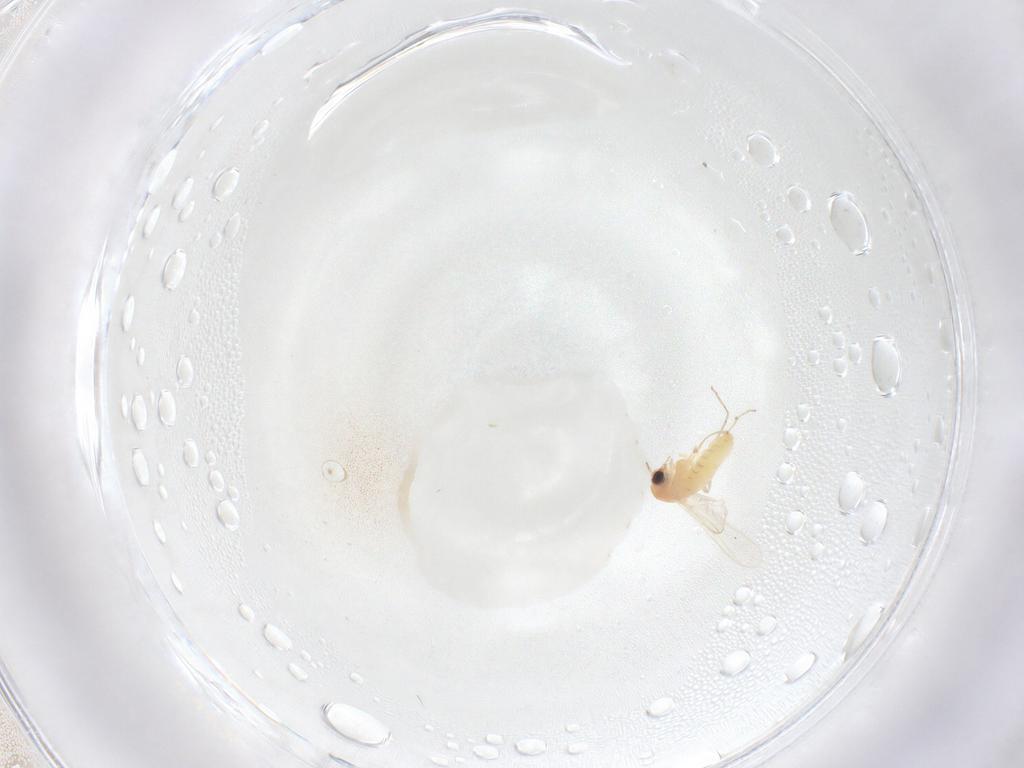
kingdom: Animalia
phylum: Arthropoda
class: Insecta
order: Diptera
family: Chironomidae
